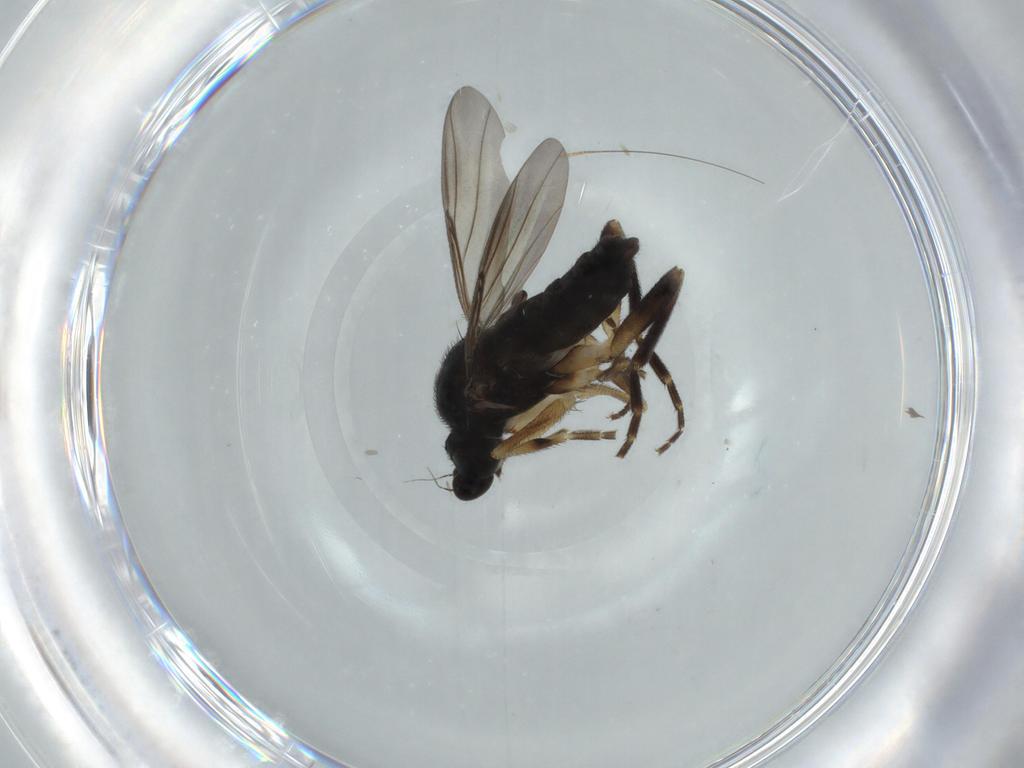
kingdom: Animalia
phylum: Arthropoda
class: Insecta
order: Diptera
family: Phoridae
